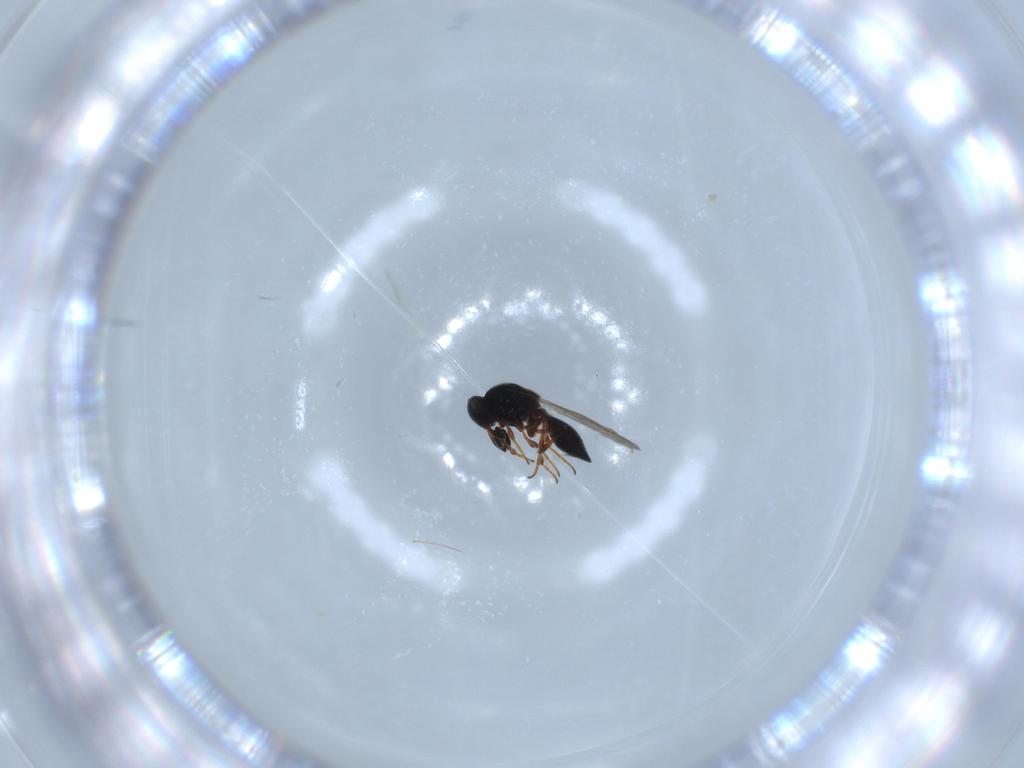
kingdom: Animalia
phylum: Arthropoda
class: Insecta
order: Hymenoptera
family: Platygastridae
